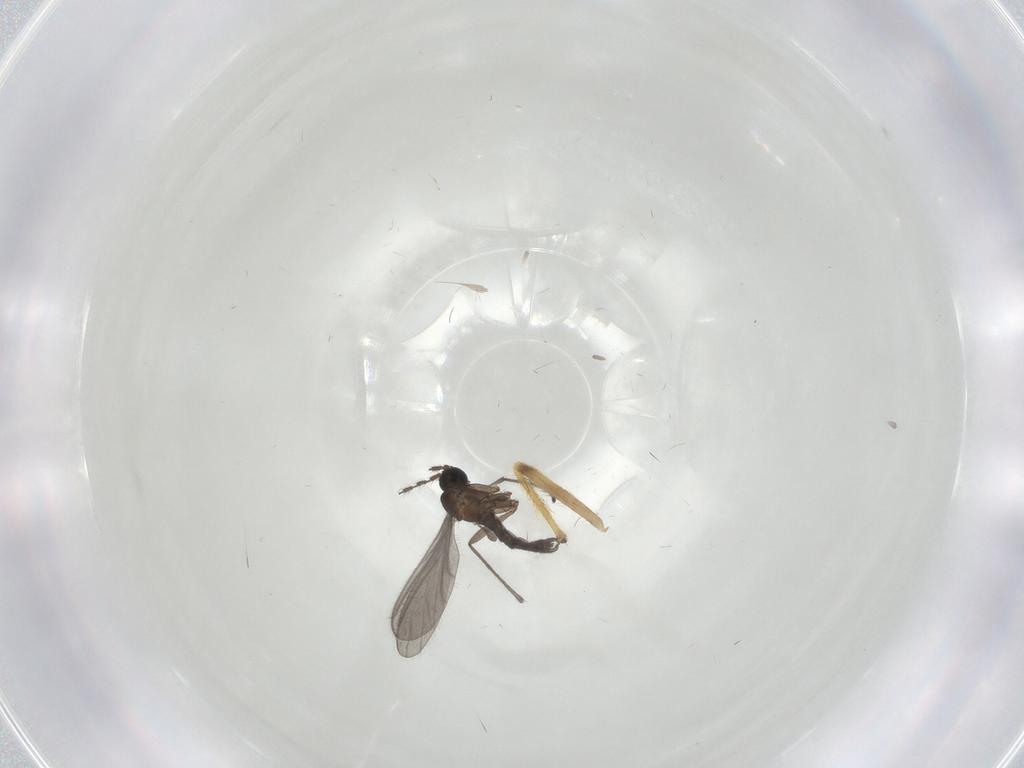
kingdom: Animalia
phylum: Arthropoda
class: Insecta
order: Diptera
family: Sciaridae
